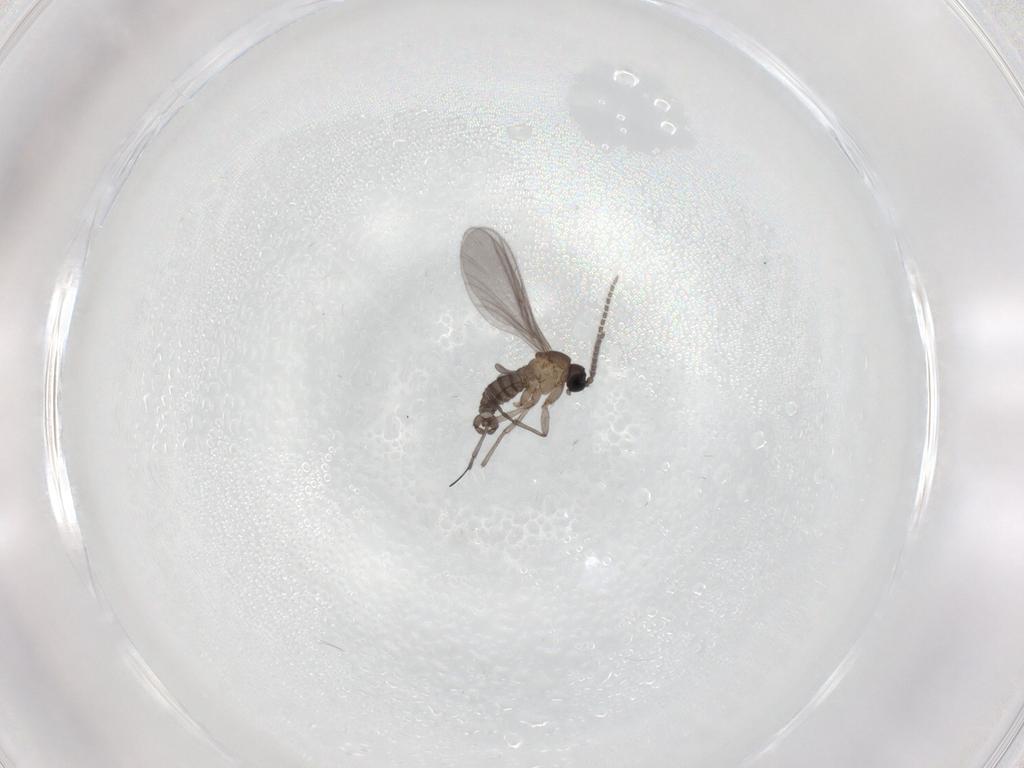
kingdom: Animalia
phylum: Arthropoda
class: Insecta
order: Diptera
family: Sciaridae
